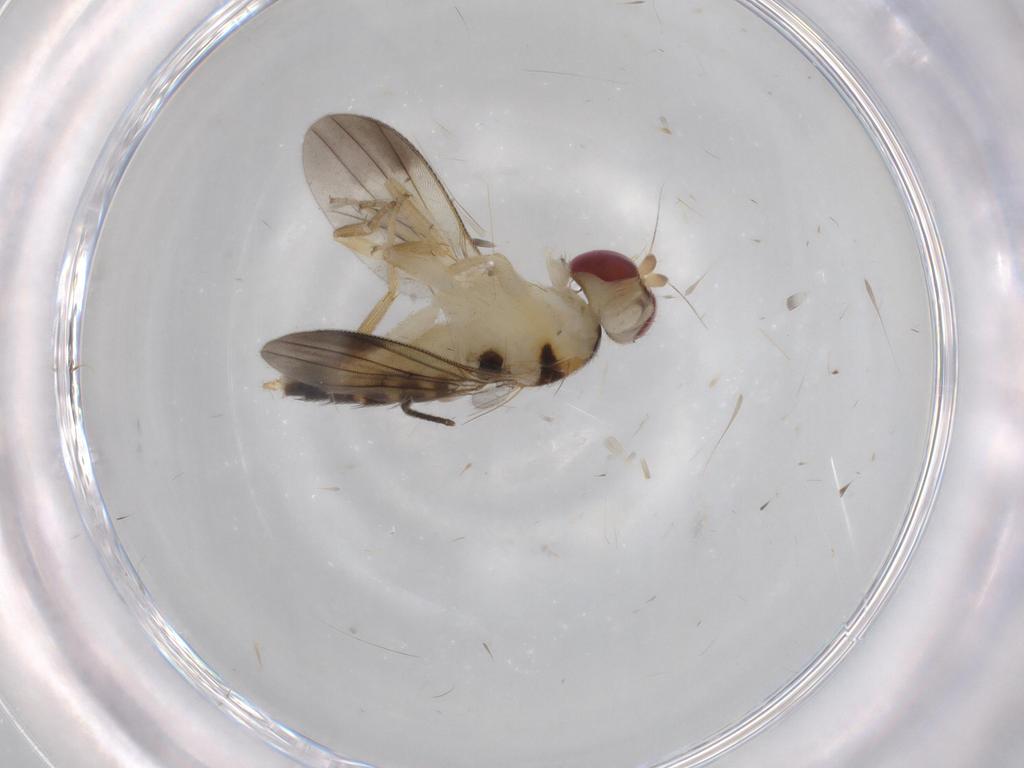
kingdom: Animalia
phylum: Arthropoda
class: Insecta
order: Diptera
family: Clusiidae
